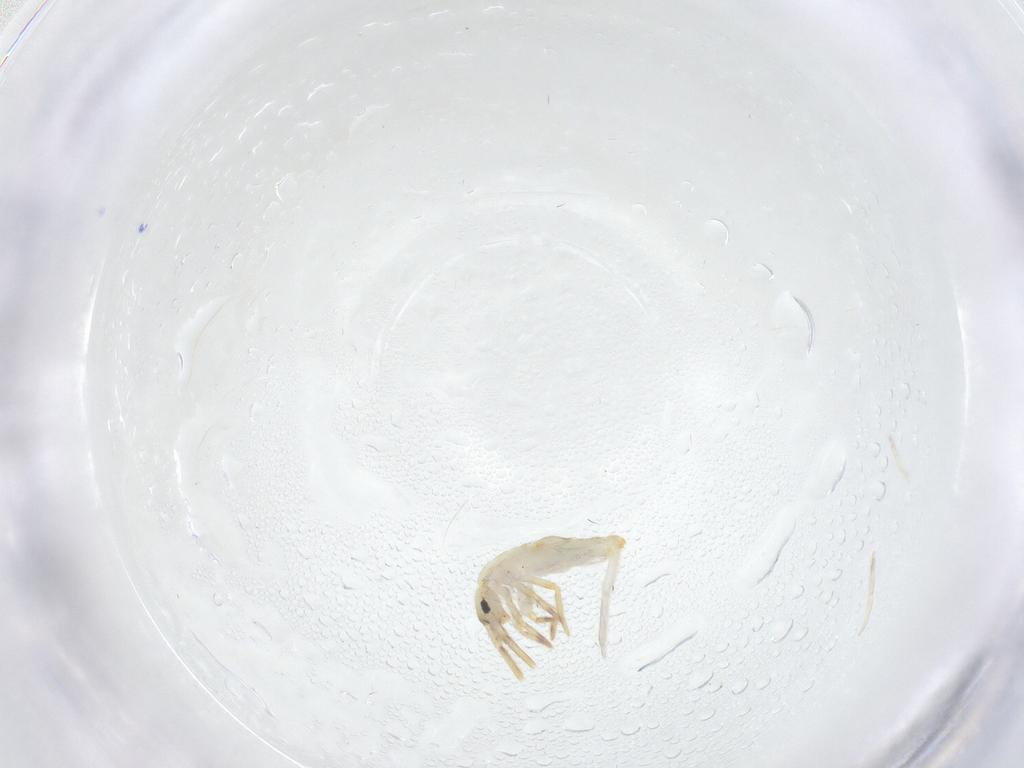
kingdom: Animalia
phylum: Arthropoda
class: Collembola
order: Entomobryomorpha
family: Entomobryidae
